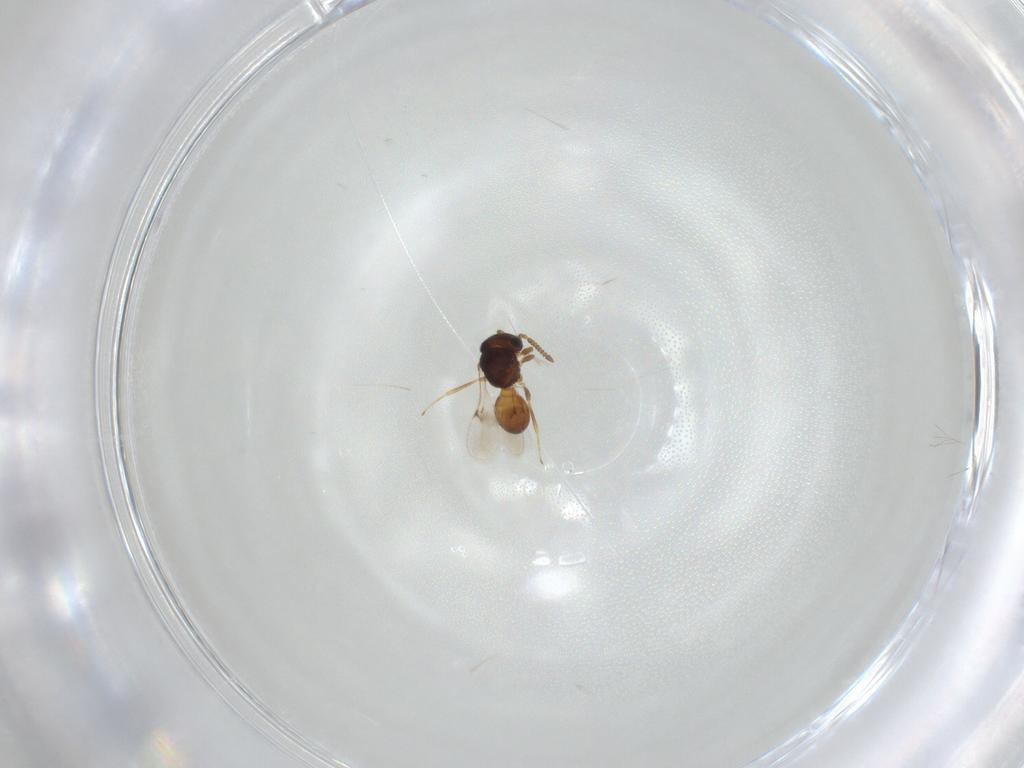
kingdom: Animalia
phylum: Arthropoda
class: Insecta
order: Hymenoptera
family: Scelionidae
